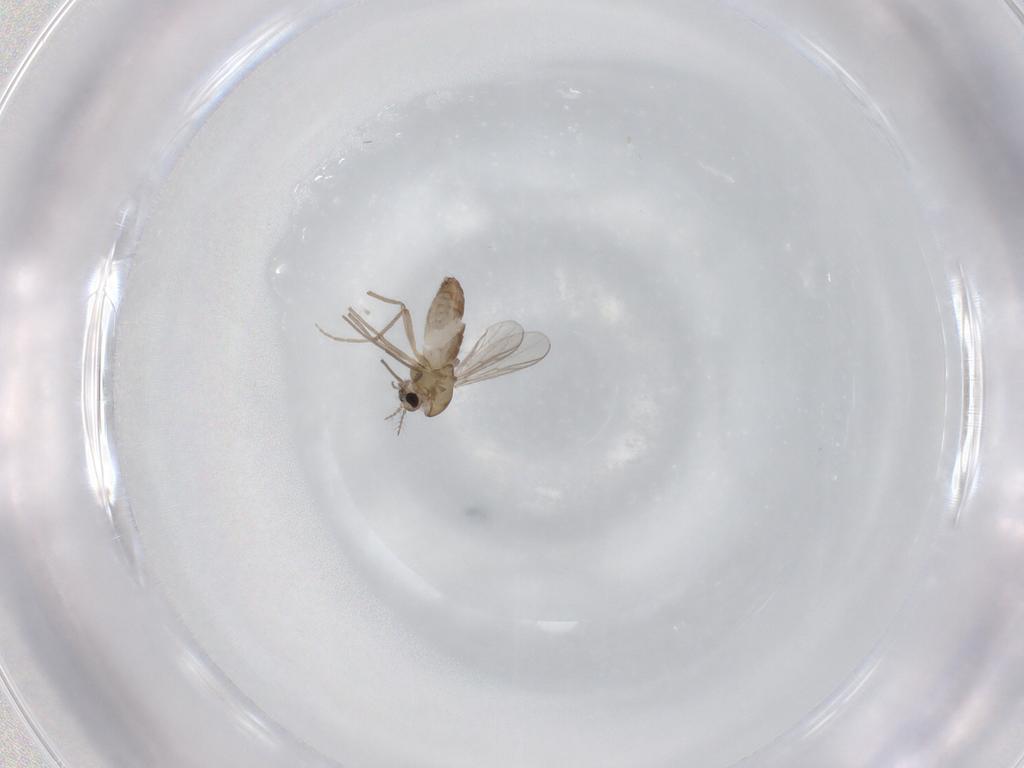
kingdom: Animalia
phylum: Arthropoda
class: Insecta
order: Diptera
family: Chironomidae
